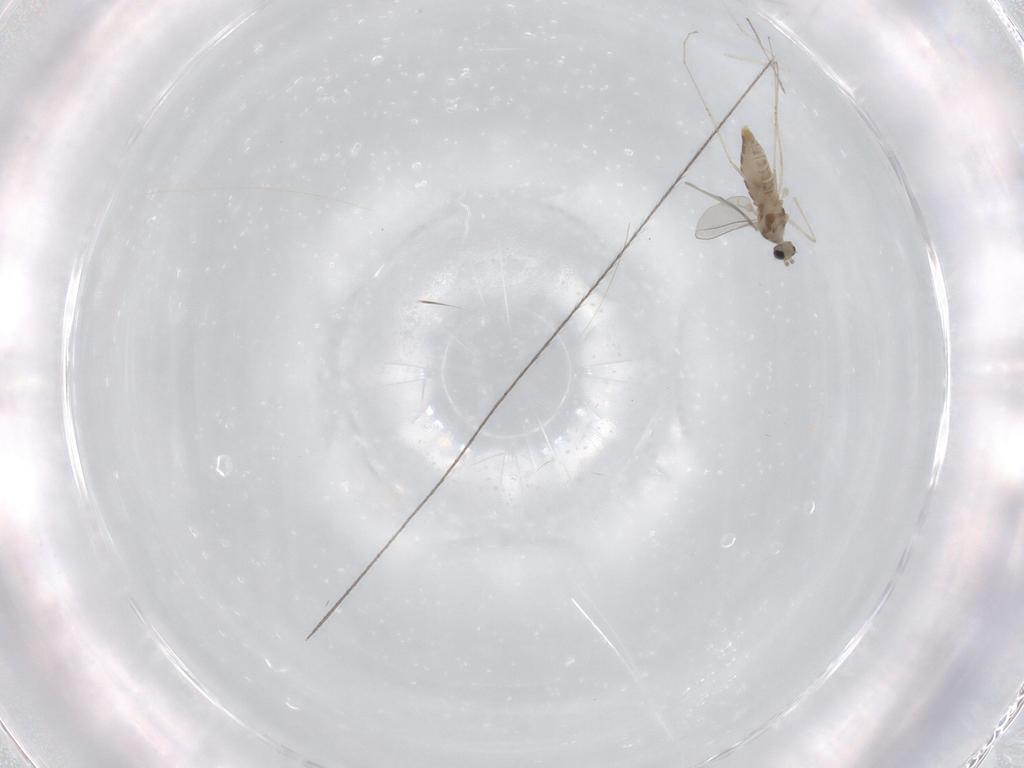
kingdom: Animalia
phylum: Arthropoda
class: Insecta
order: Diptera
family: Cecidomyiidae
